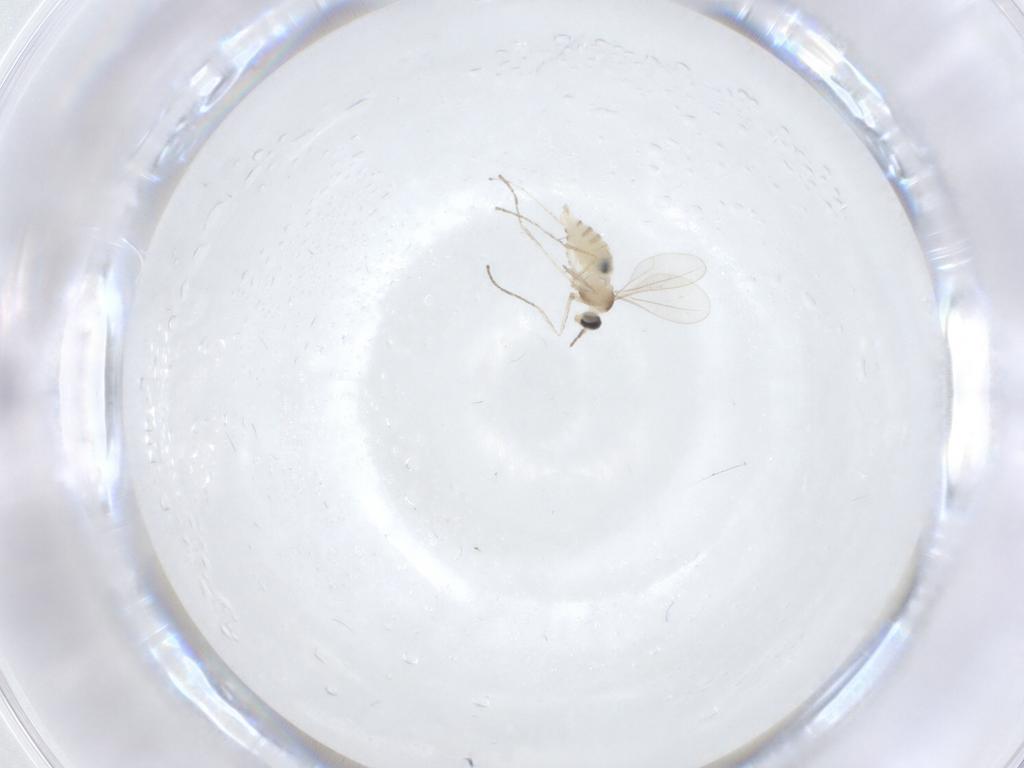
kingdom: Animalia
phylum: Arthropoda
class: Insecta
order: Diptera
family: Cecidomyiidae
